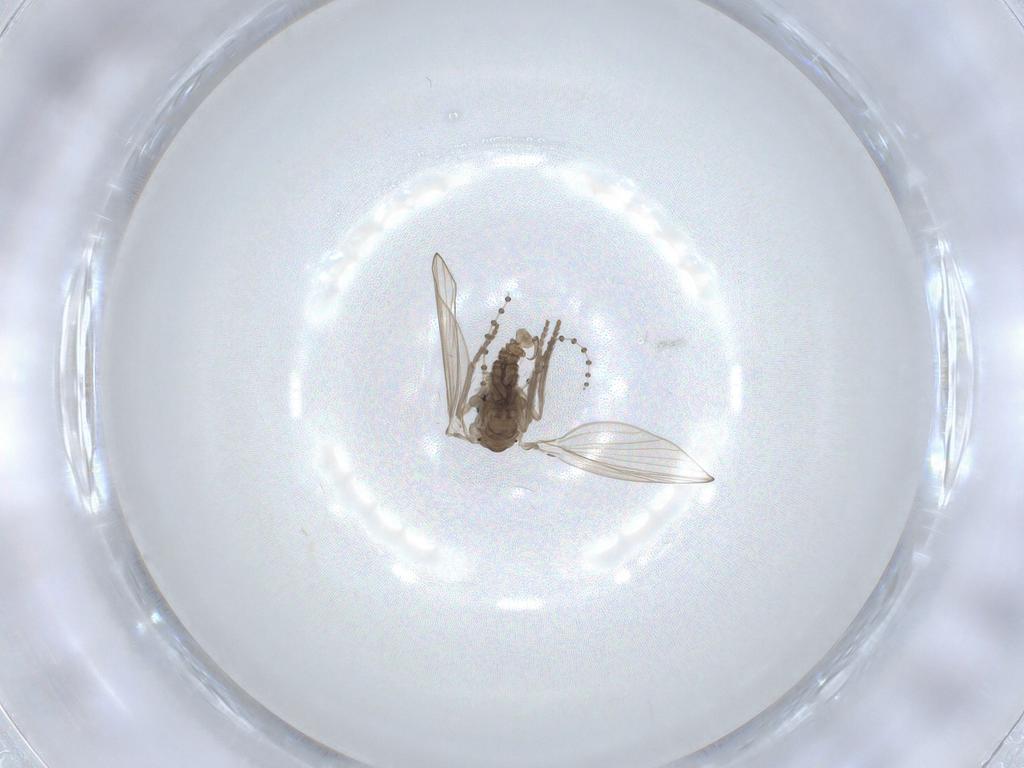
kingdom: Animalia
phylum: Arthropoda
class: Insecta
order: Diptera
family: Psychodidae
